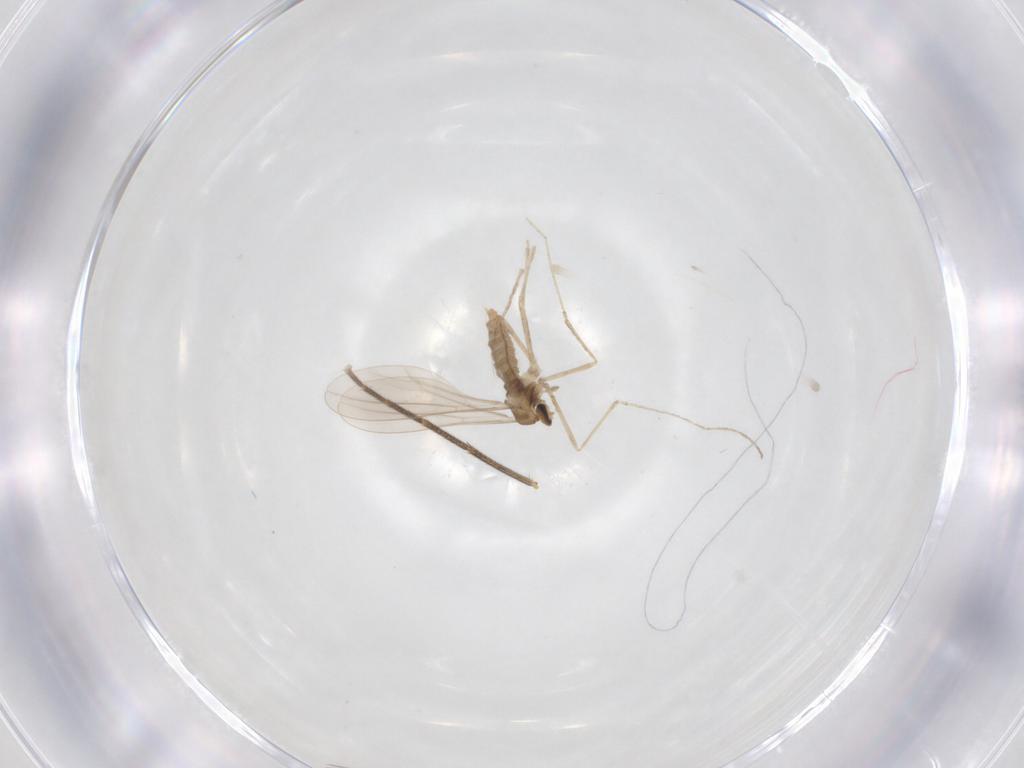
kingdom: Animalia
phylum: Arthropoda
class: Insecta
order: Diptera
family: Mycetophilidae
